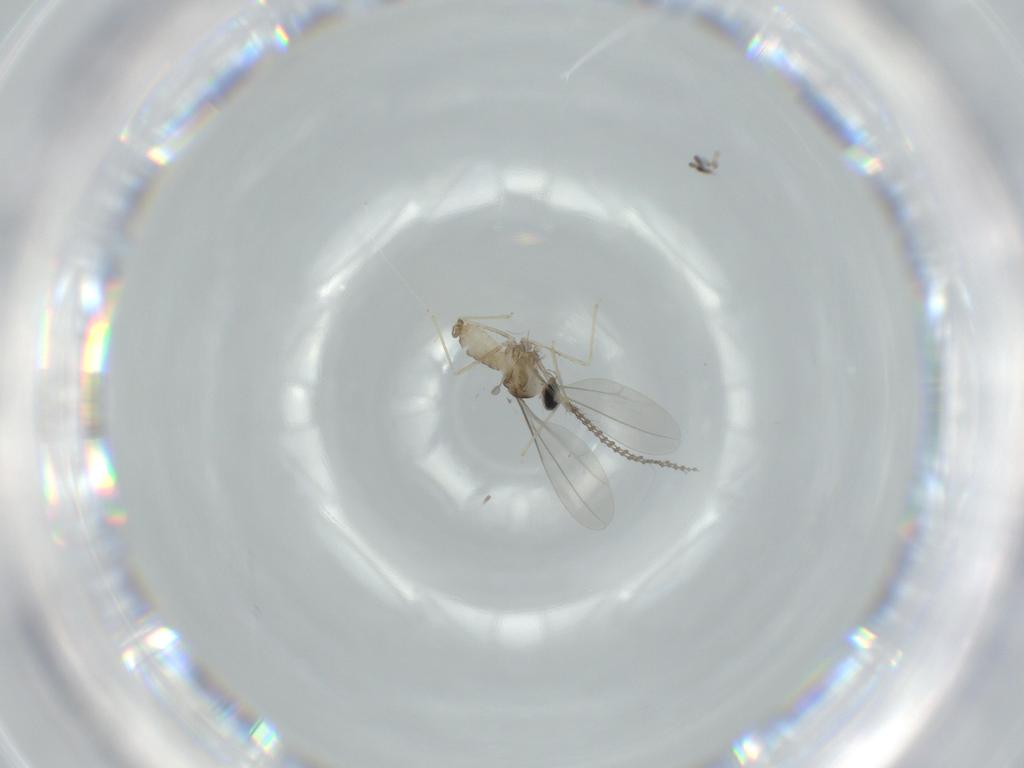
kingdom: Animalia
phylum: Arthropoda
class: Insecta
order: Diptera
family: Cecidomyiidae
